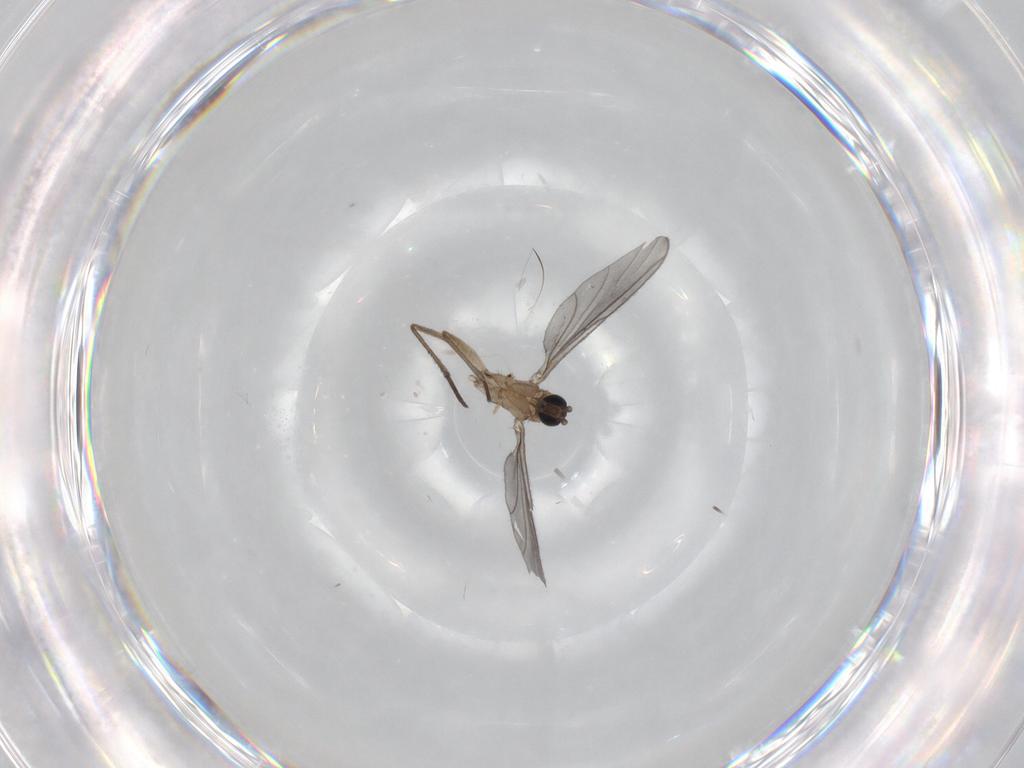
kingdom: Animalia
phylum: Arthropoda
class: Insecta
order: Diptera
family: Sciaridae
